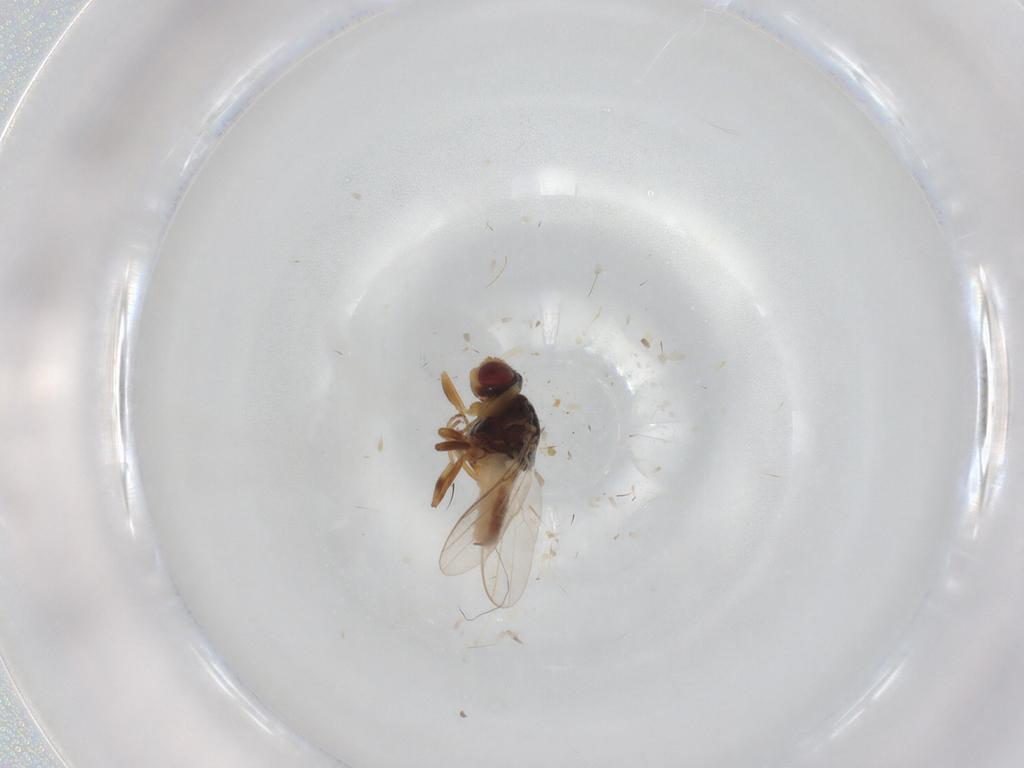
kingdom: Animalia
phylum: Arthropoda
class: Insecta
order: Diptera
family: Chloropidae
